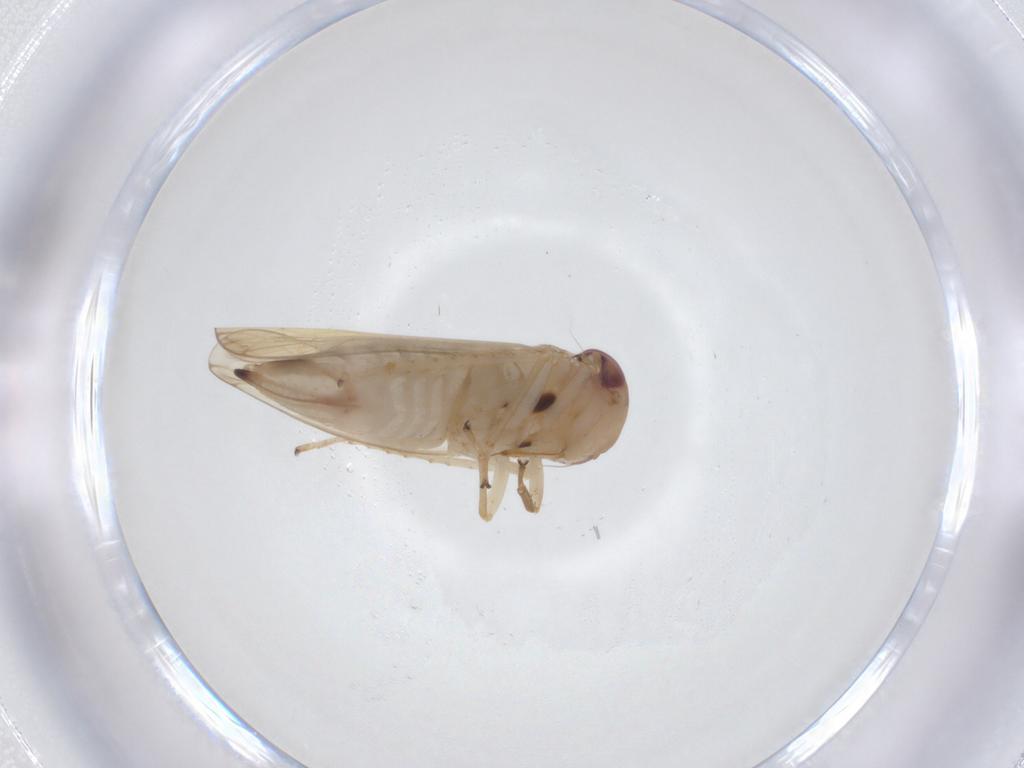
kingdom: Animalia
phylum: Arthropoda
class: Insecta
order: Hemiptera
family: Cicadellidae
